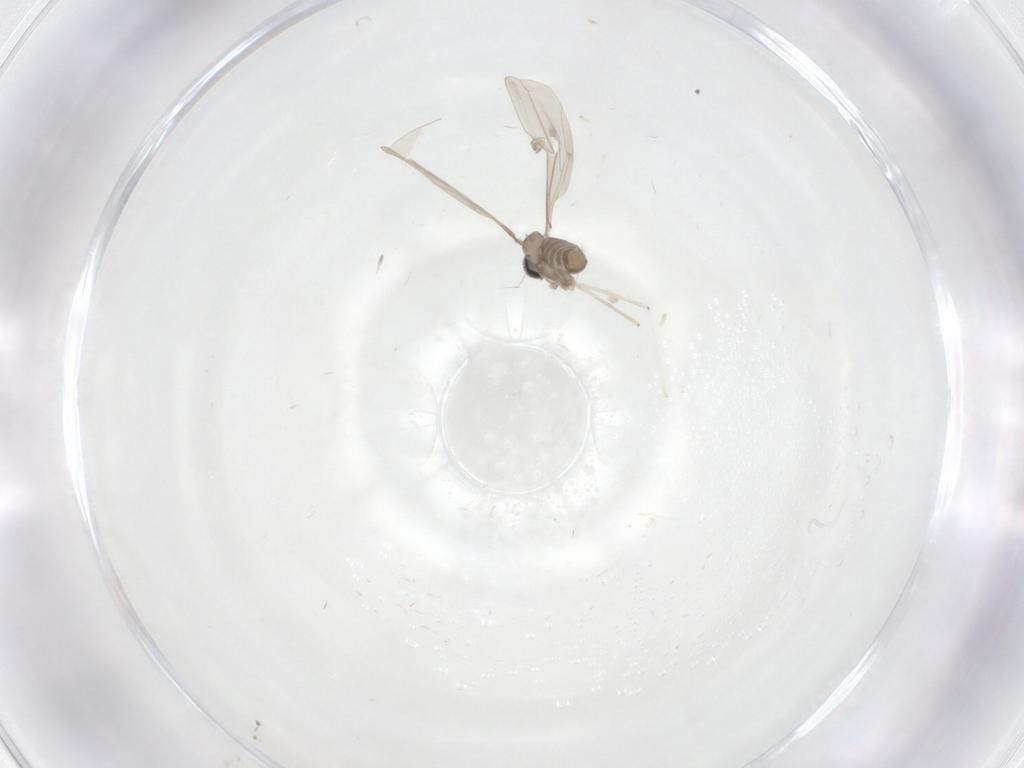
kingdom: Animalia
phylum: Arthropoda
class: Insecta
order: Diptera
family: Cecidomyiidae
